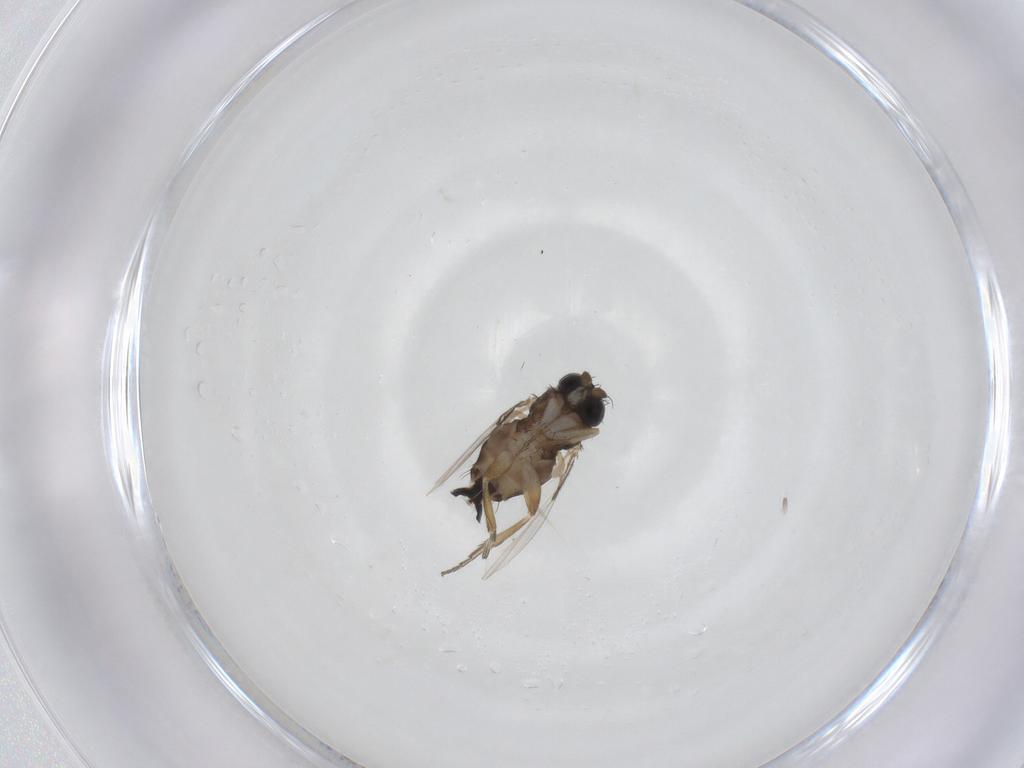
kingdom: Animalia
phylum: Arthropoda
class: Insecta
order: Diptera
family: Phoridae
